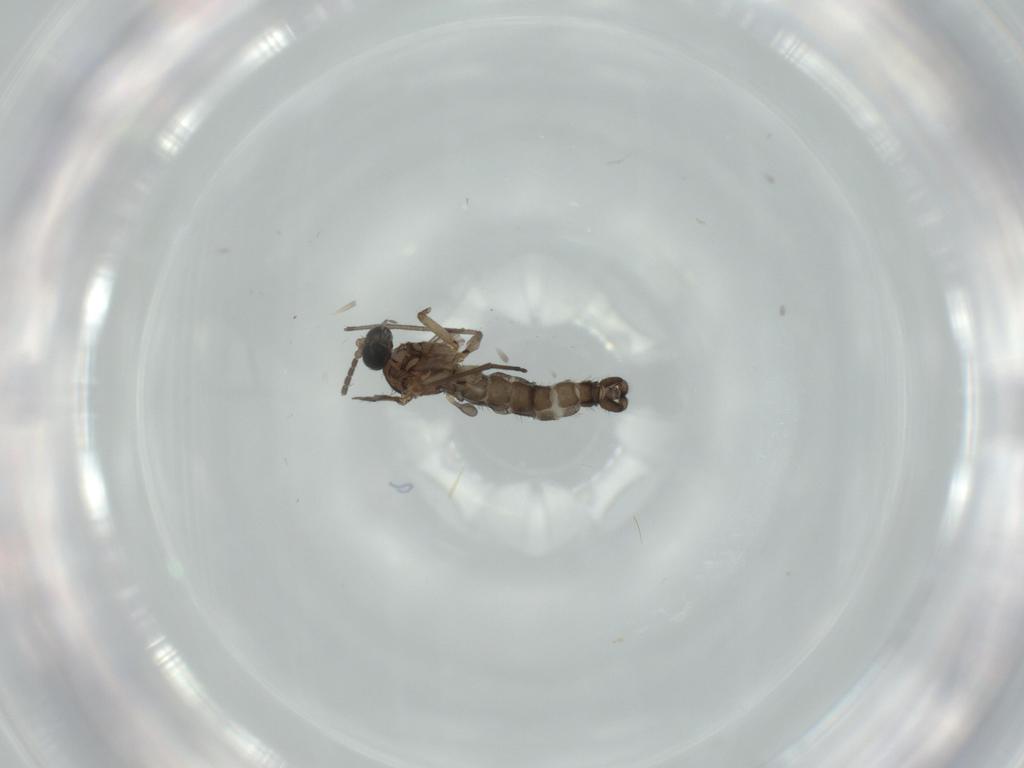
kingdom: Animalia
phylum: Arthropoda
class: Insecta
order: Diptera
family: Sciaridae
